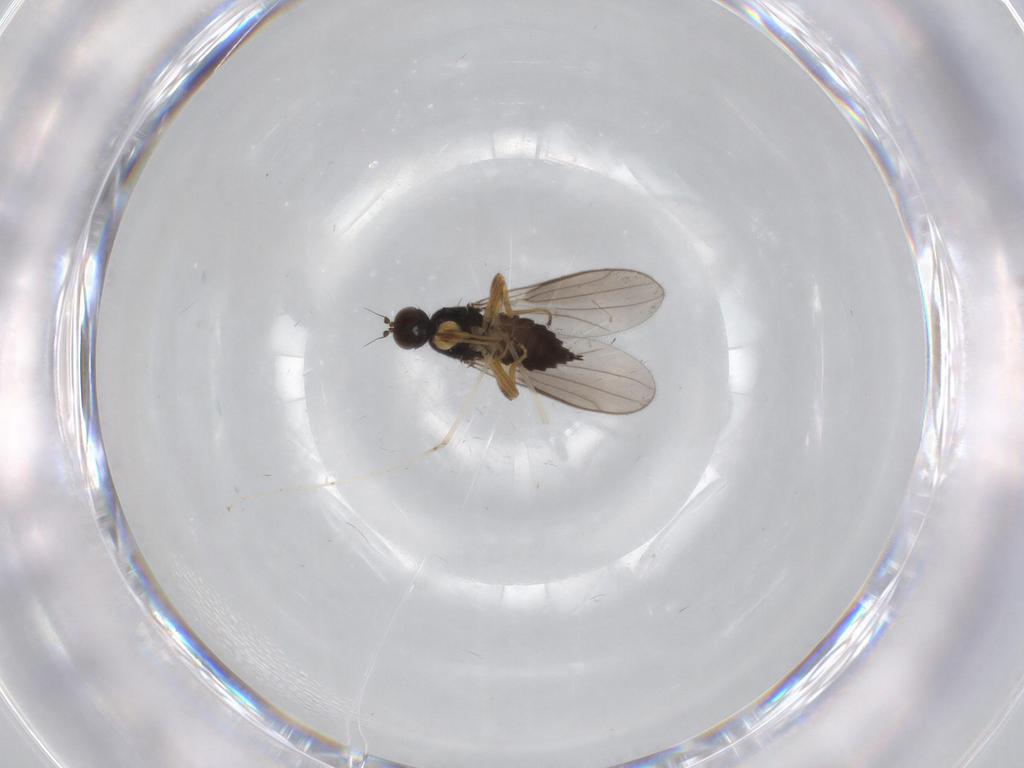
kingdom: Animalia
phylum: Arthropoda
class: Insecta
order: Diptera
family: Hybotidae
